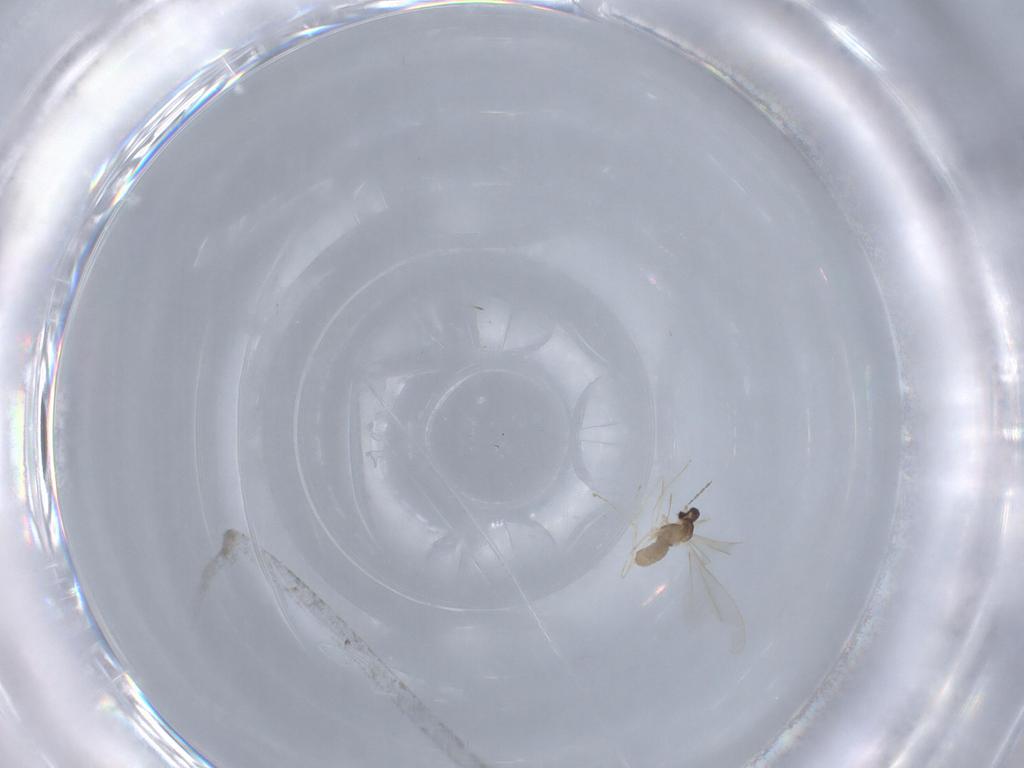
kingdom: Animalia
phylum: Arthropoda
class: Insecta
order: Diptera
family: Cecidomyiidae
